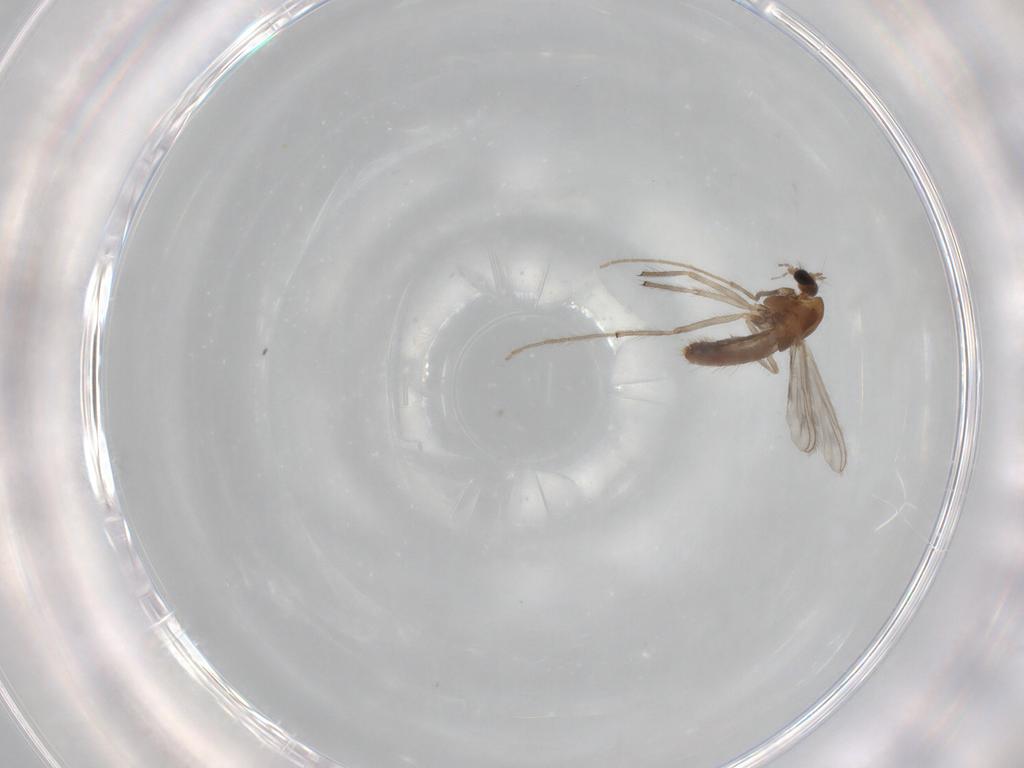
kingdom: Animalia
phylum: Arthropoda
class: Insecta
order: Diptera
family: Chironomidae
